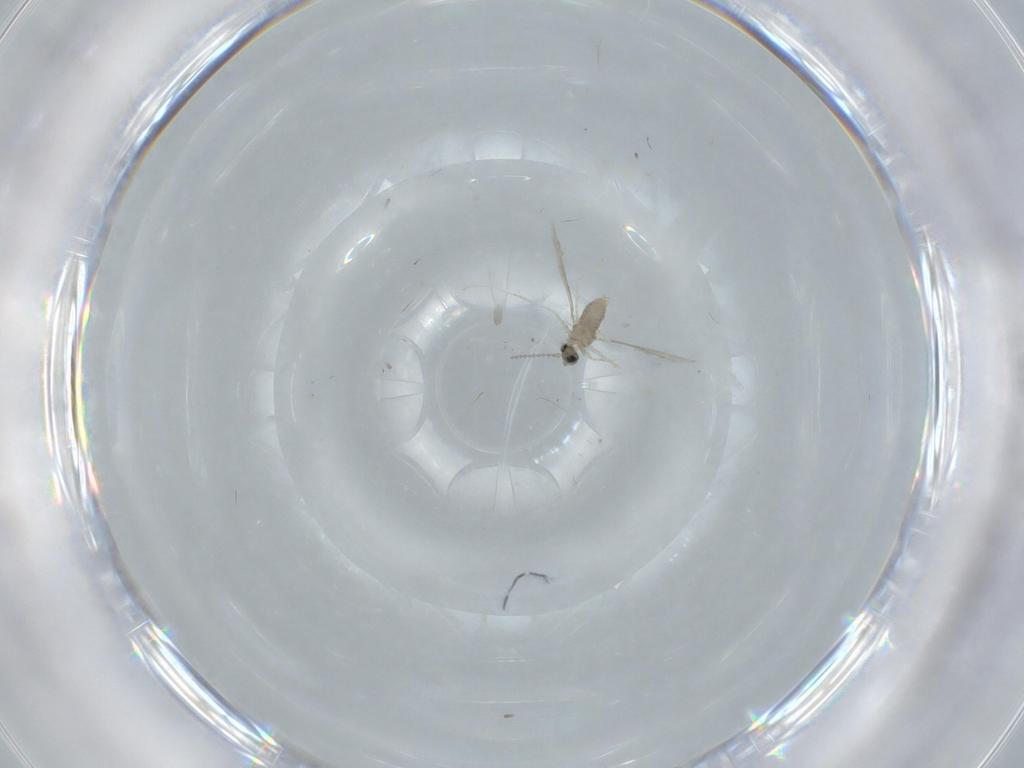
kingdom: Animalia
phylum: Arthropoda
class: Insecta
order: Diptera
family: Cecidomyiidae
